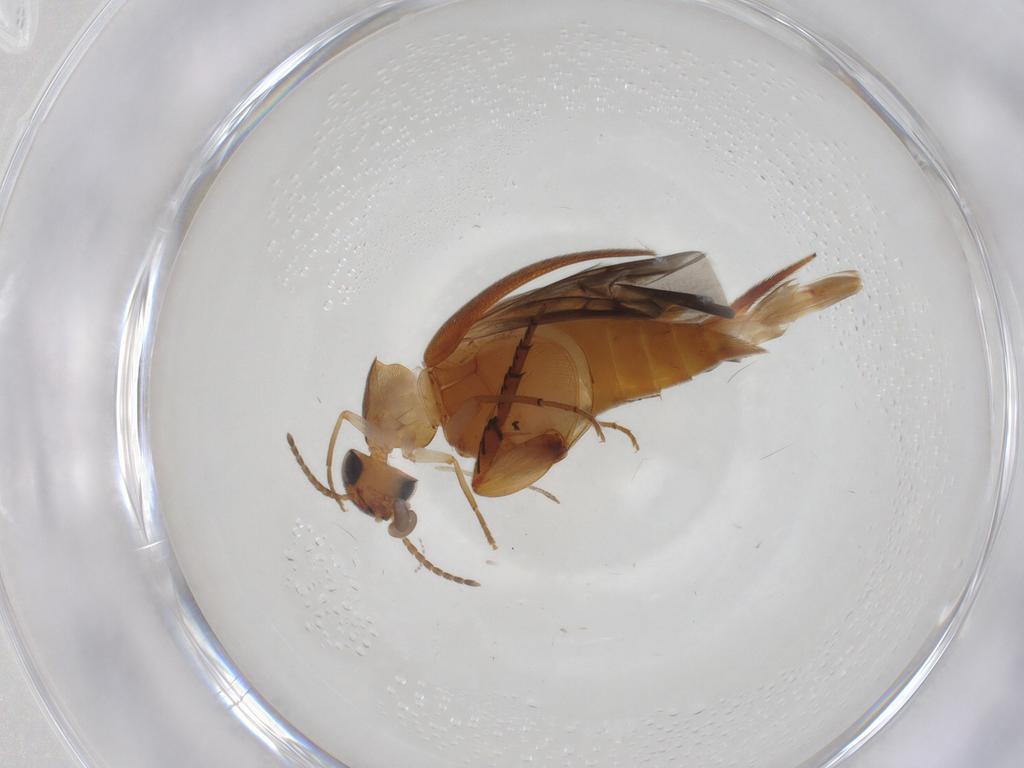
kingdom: Animalia
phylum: Arthropoda
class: Insecta
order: Coleoptera
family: Mordellidae
